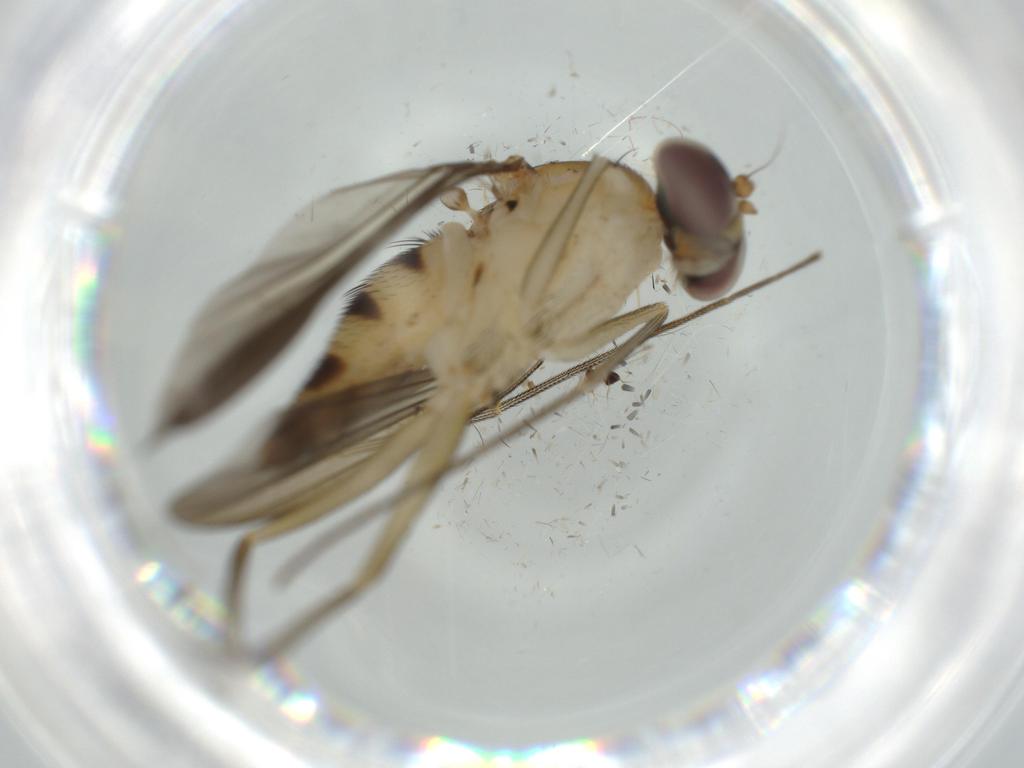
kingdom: Animalia
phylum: Arthropoda
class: Insecta
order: Diptera
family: Dolichopodidae
